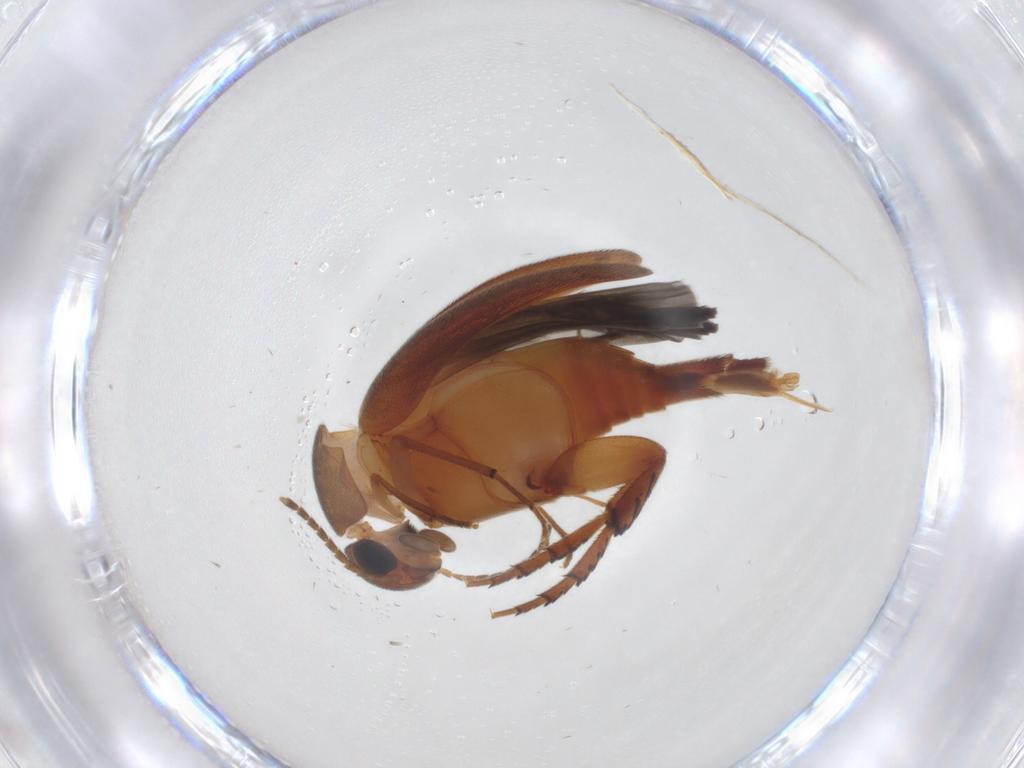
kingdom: Animalia
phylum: Arthropoda
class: Insecta
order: Coleoptera
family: Mordellidae
